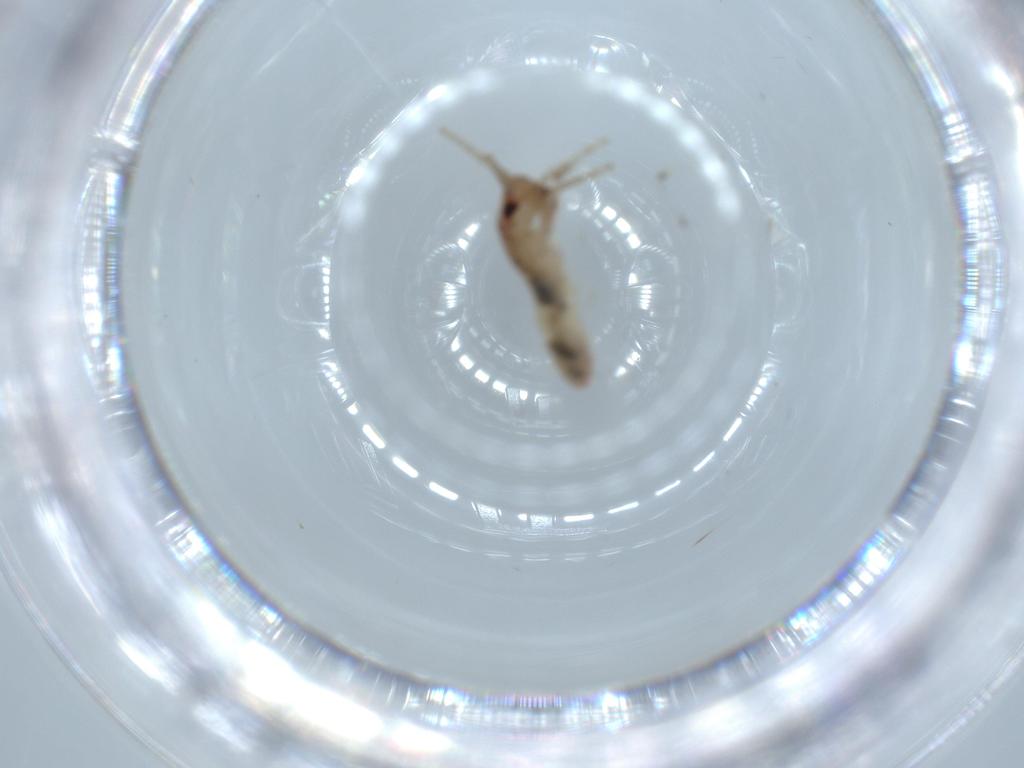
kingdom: Animalia
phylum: Arthropoda
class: Insecta
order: Orthoptera
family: Mogoplistidae
